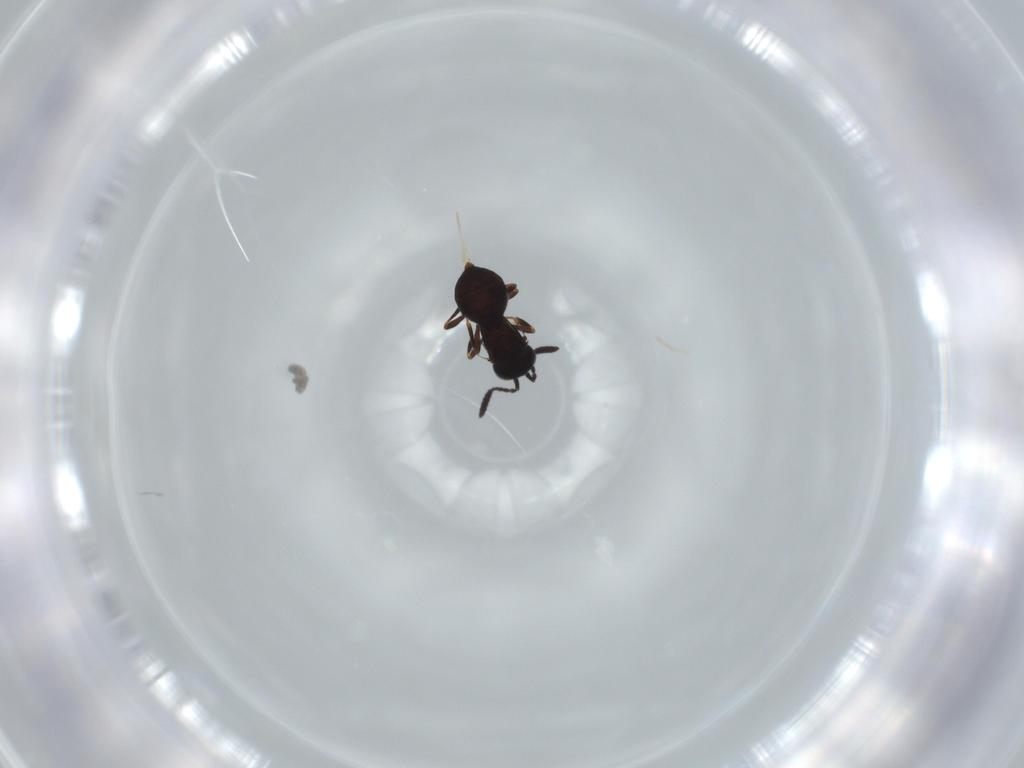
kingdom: Animalia
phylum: Arthropoda
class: Insecta
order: Hymenoptera
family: Scelionidae
